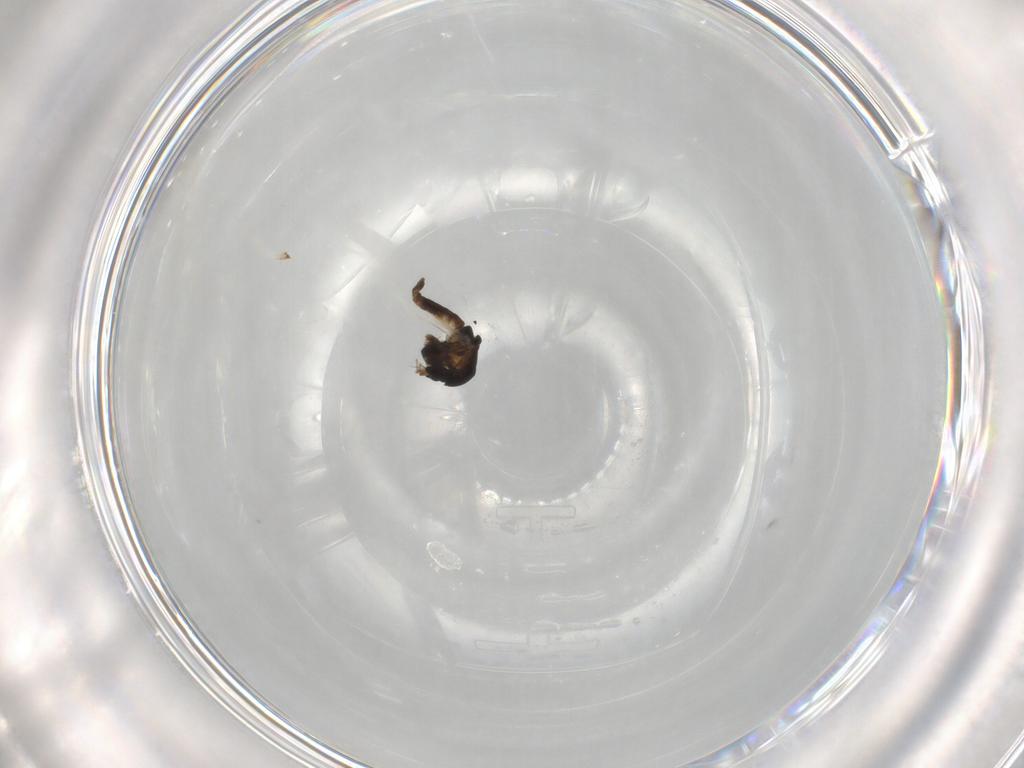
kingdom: Animalia
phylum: Arthropoda
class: Insecta
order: Diptera
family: Chironomidae
